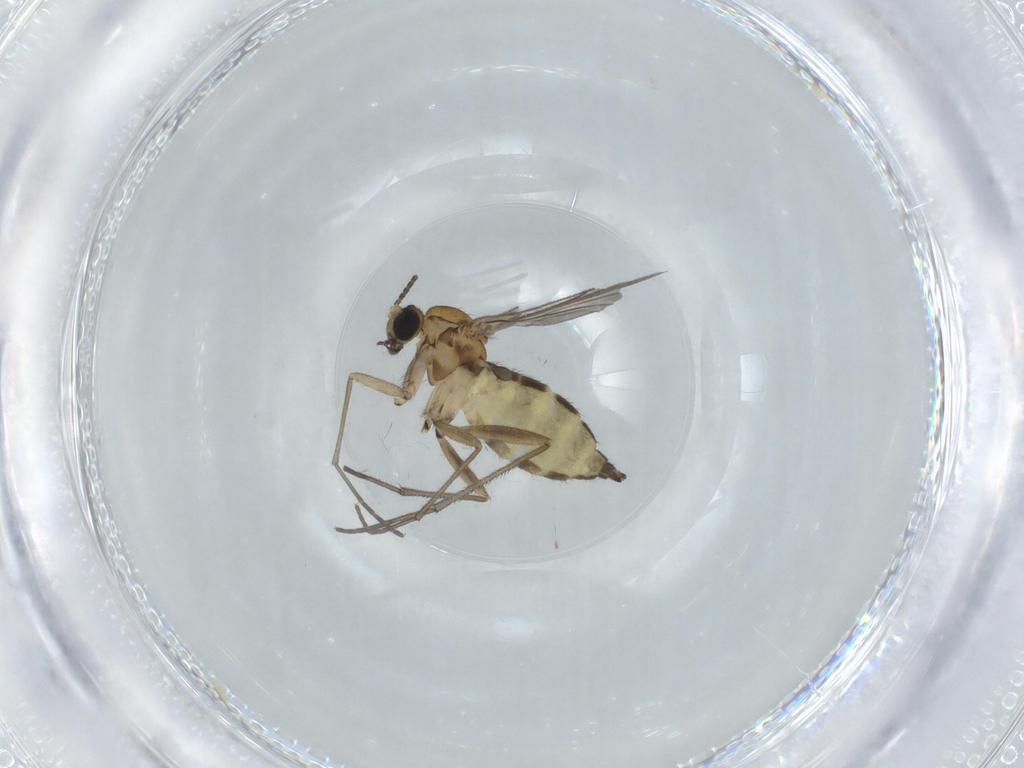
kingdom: Animalia
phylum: Arthropoda
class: Insecta
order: Diptera
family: Sciaridae
